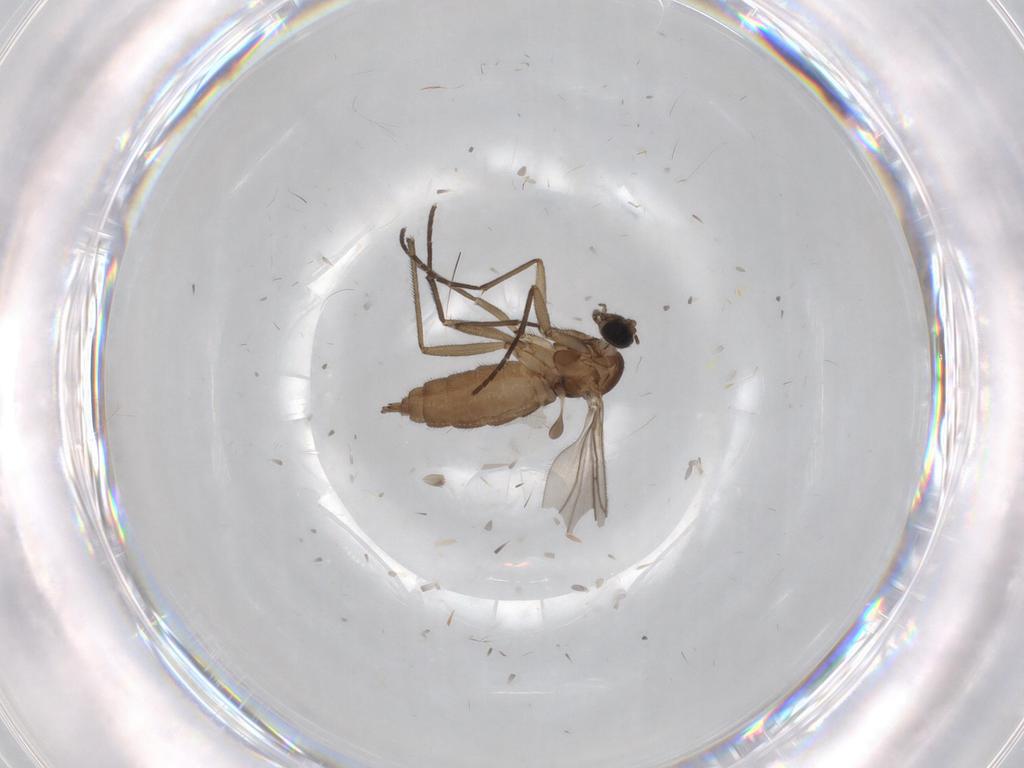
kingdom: Animalia
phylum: Arthropoda
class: Insecta
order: Diptera
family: Sciaridae
